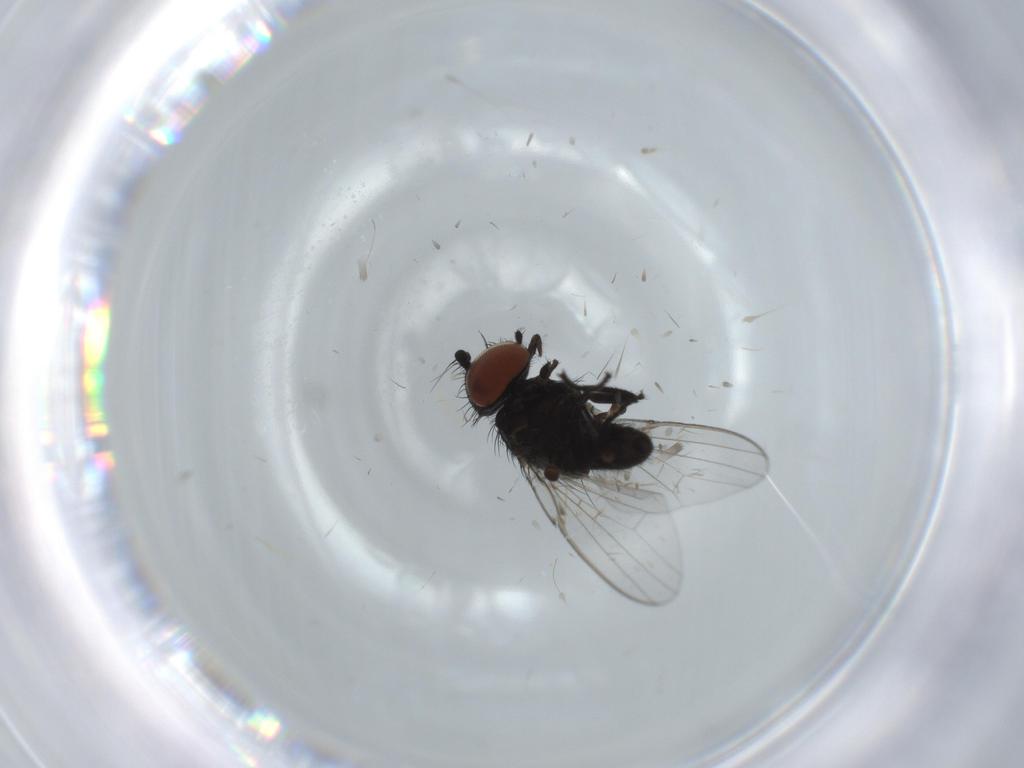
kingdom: Animalia
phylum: Arthropoda
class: Insecta
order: Diptera
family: Milichiidae
